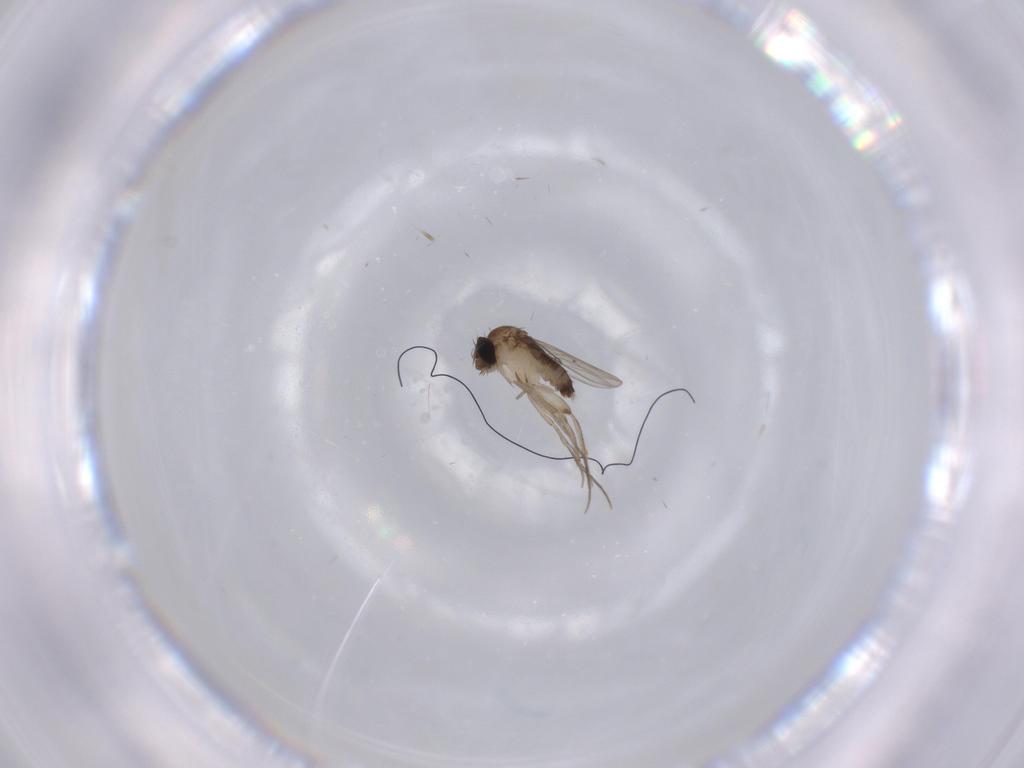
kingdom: Animalia
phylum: Arthropoda
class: Insecta
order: Diptera
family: Phoridae
